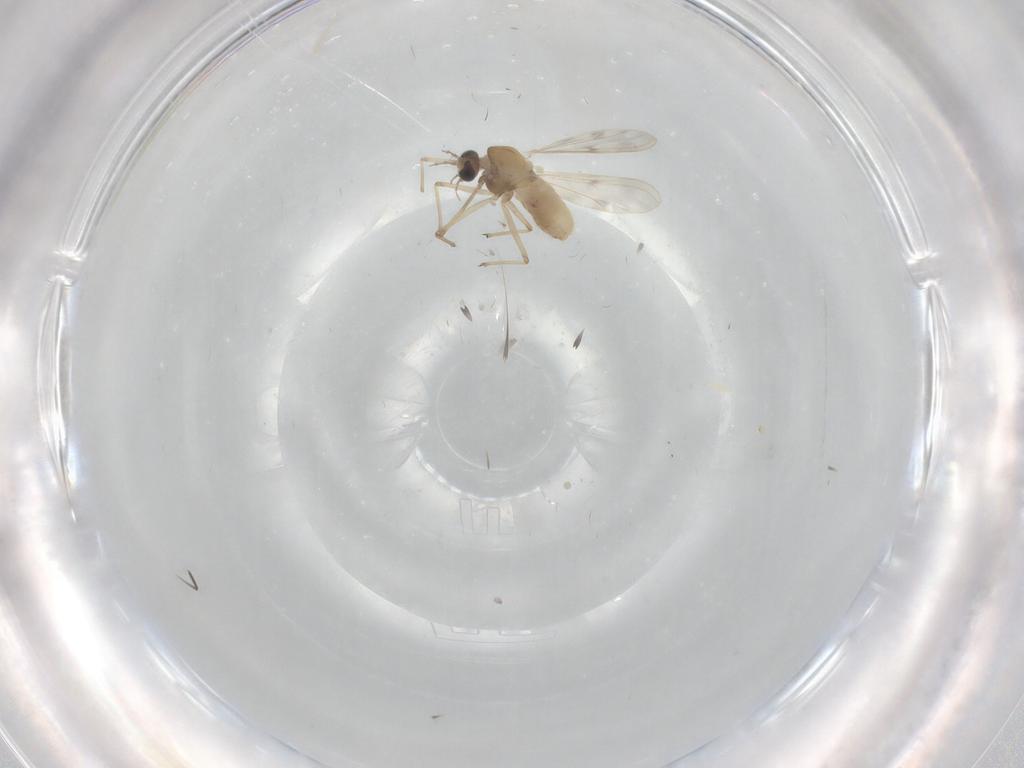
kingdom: Animalia
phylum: Arthropoda
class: Insecta
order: Diptera
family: Chironomidae
